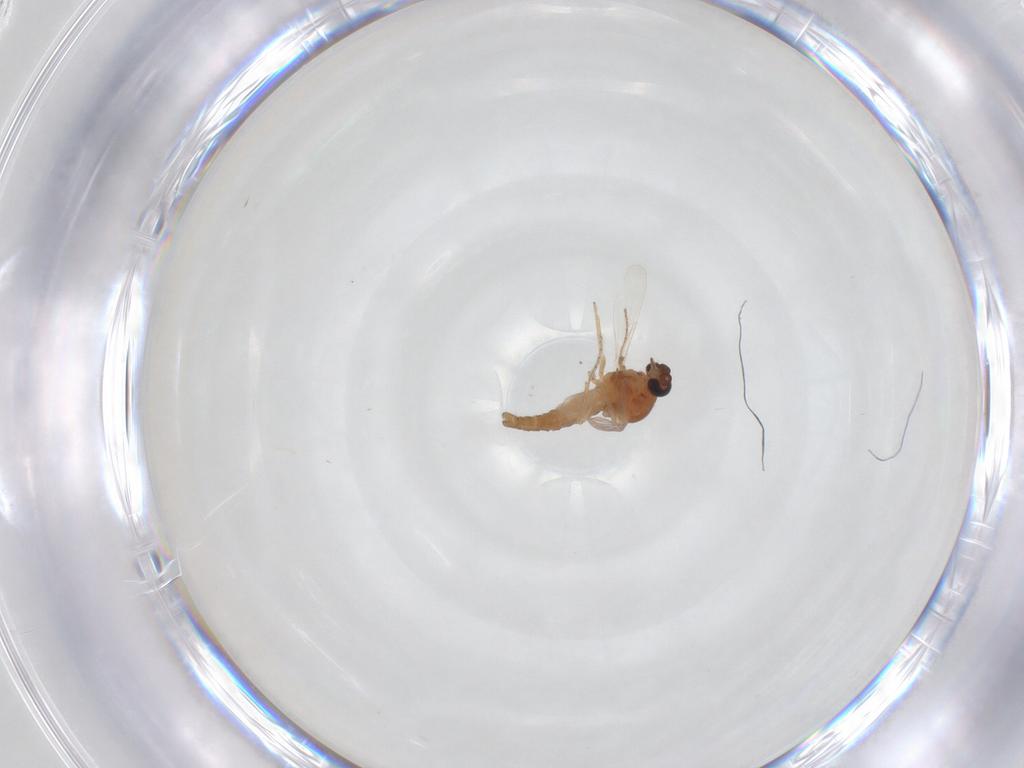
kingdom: Animalia
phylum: Arthropoda
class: Insecta
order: Diptera
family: Ceratopogonidae
